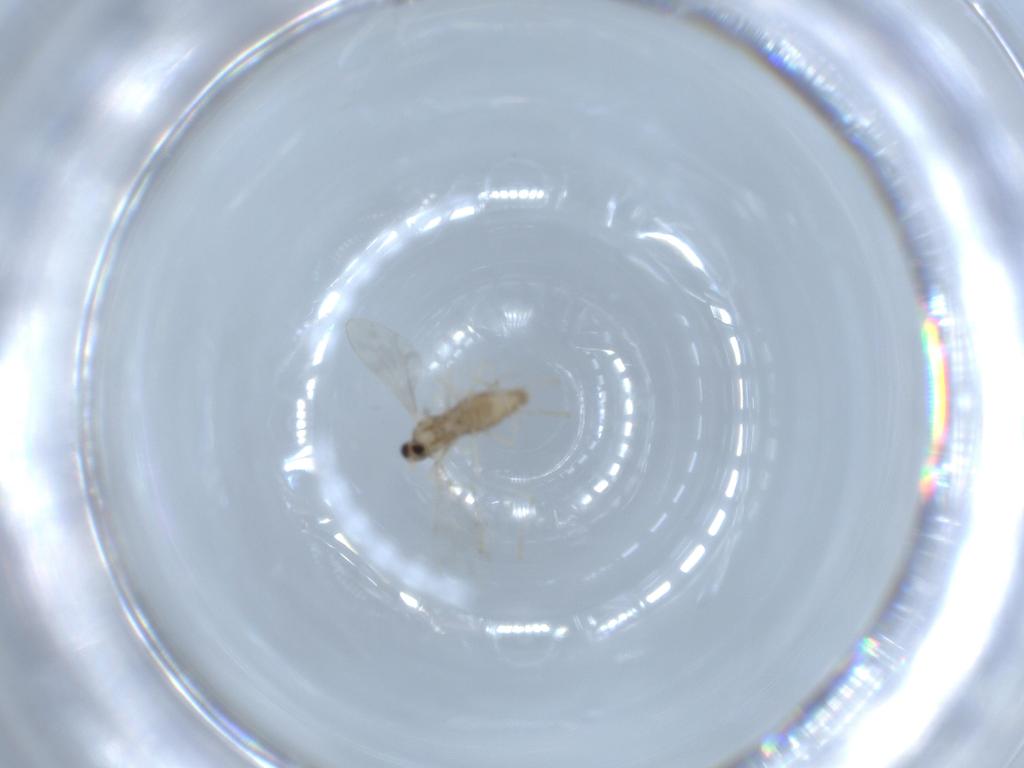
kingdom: Animalia
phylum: Arthropoda
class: Insecta
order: Diptera
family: Cecidomyiidae
